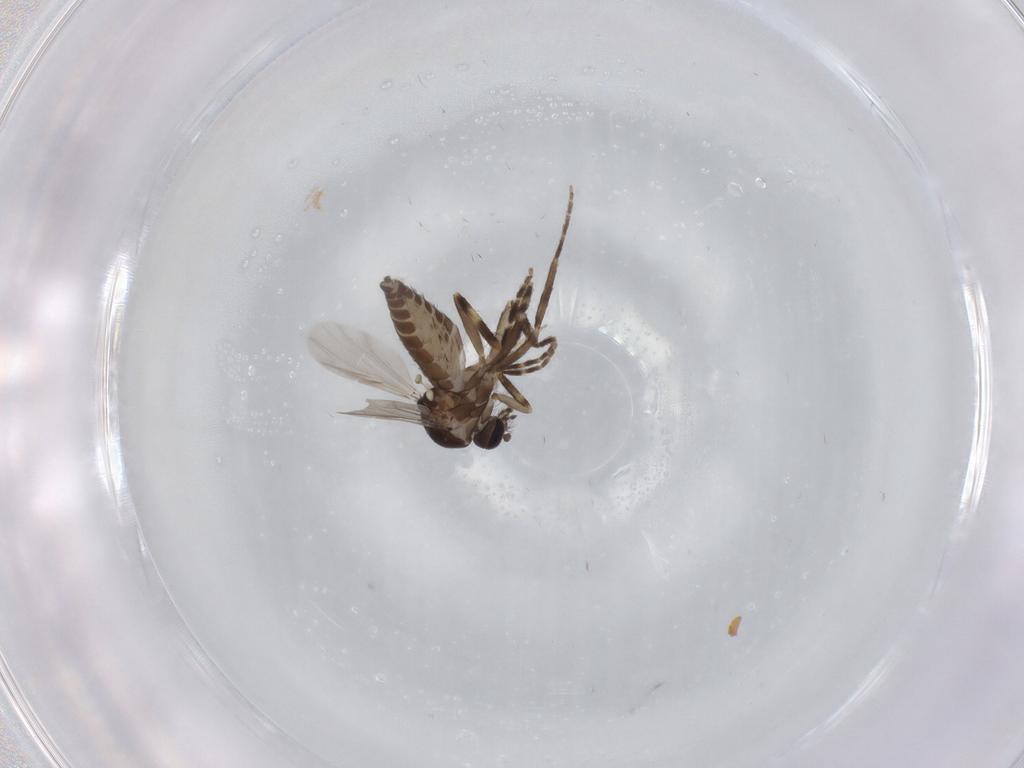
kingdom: Animalia
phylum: Arthropoda
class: Insecta
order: Diptera
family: Ceratopogonidae
